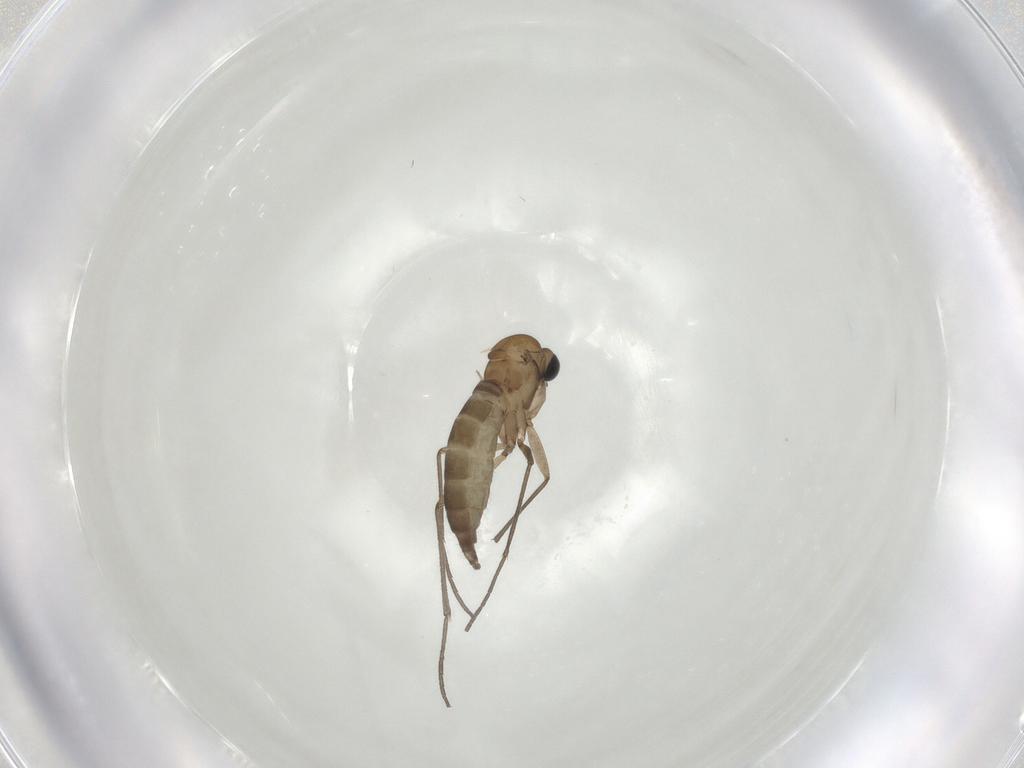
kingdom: Animalia
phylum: Arthropoda
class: Insecta
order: Diptera
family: Sciaridae
